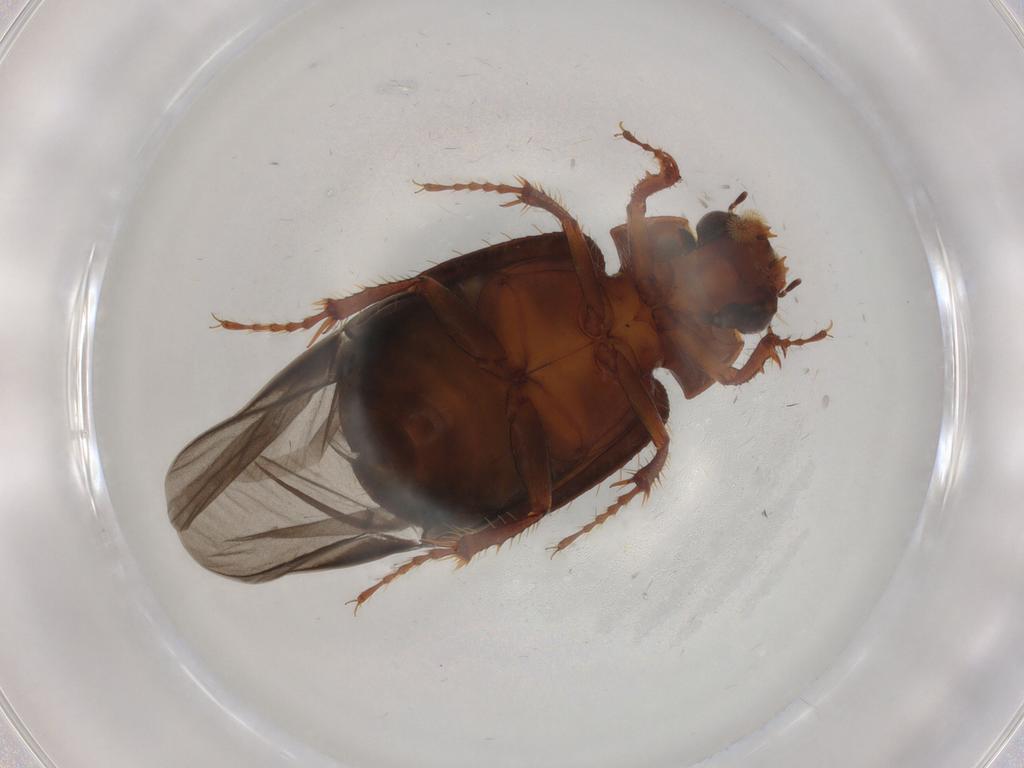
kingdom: Animalia
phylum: Arthropoda
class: Insecta
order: Coleoptera
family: Hybosoridae
